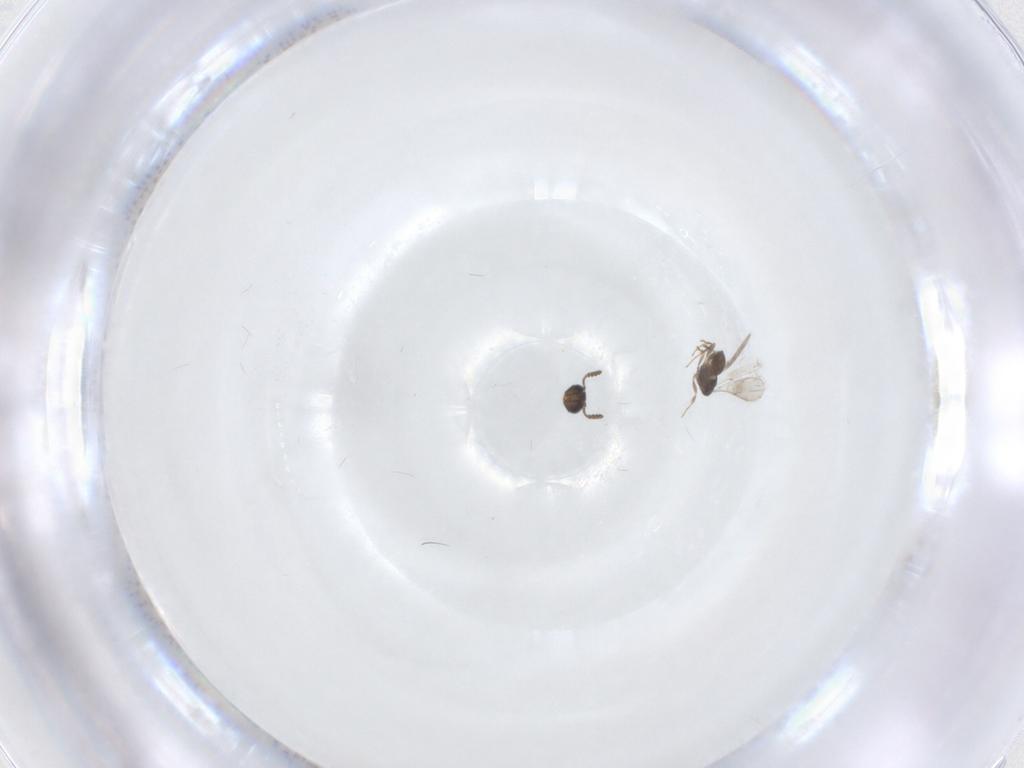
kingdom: Animalia
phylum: Arthropoda
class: Insecta
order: Hymenoptera
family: Scelionidae
